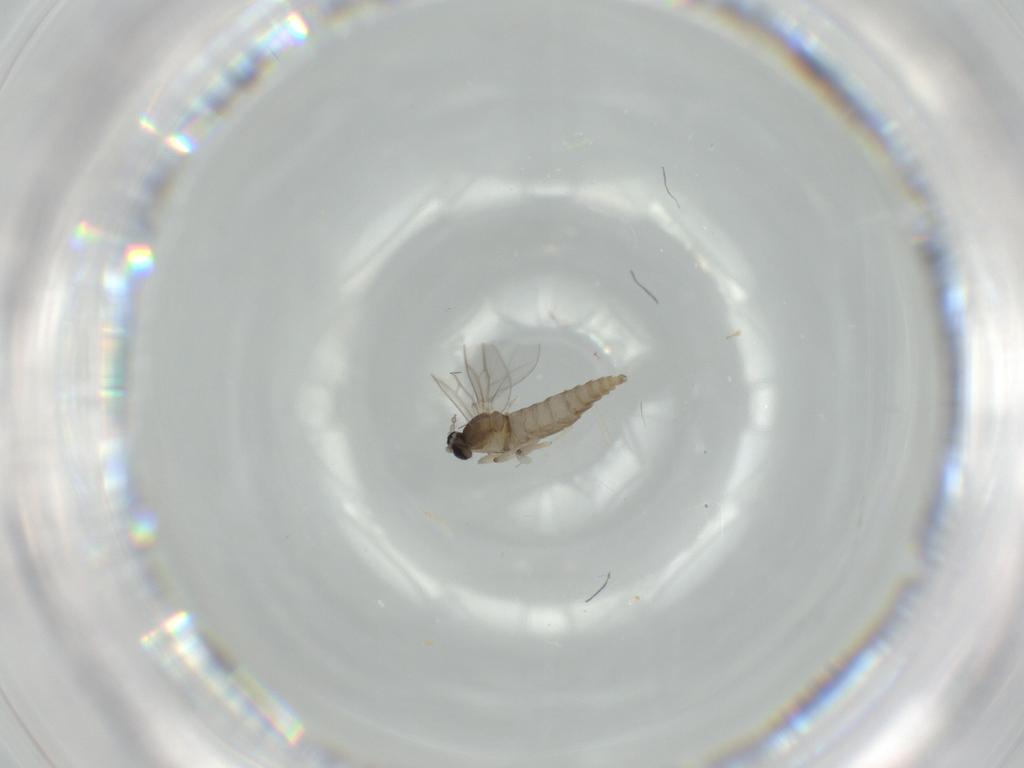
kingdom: Animalia
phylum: Arthropoda
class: Insecta
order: Diptera
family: Cecidomyiidae
